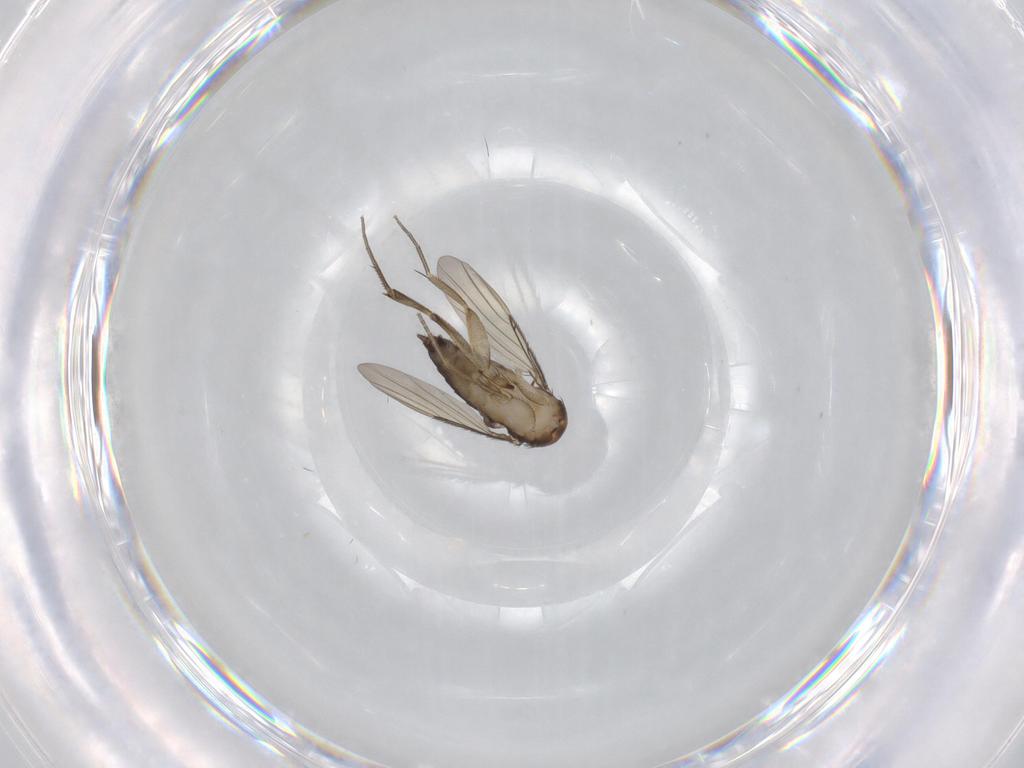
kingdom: Animalia
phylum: Arthropoda
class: Insecta
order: Diptera
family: Phoridae
